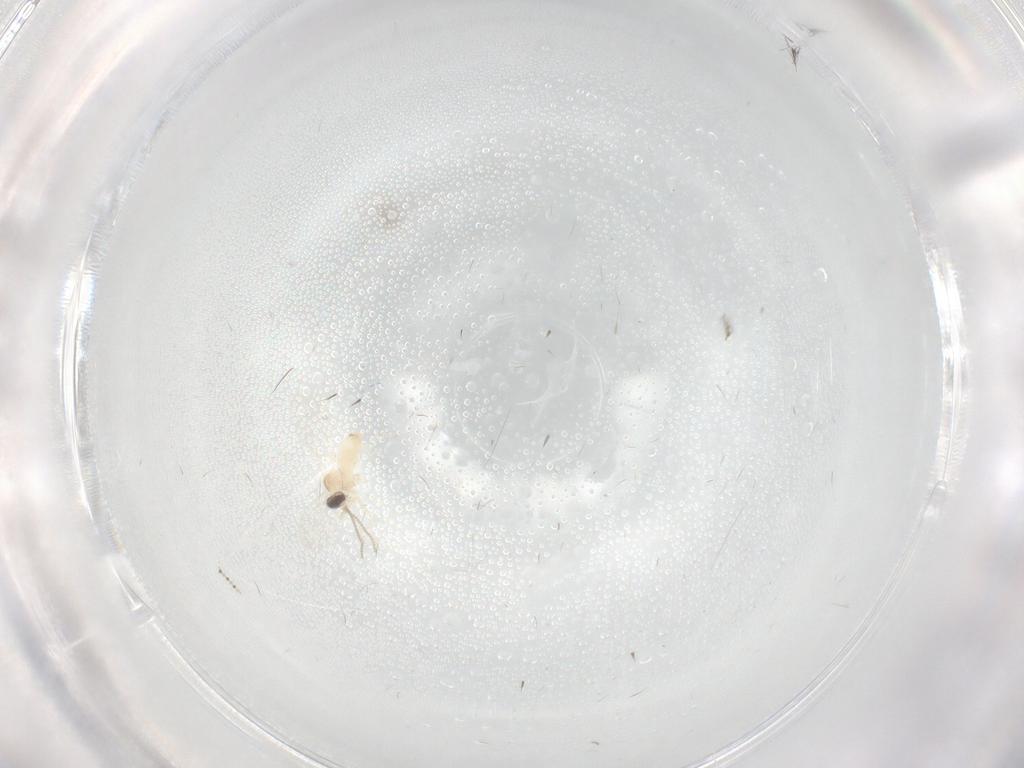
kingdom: Animalia
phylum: Arthropoda
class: Insecta
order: Diptera
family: Cecidomyiidae
